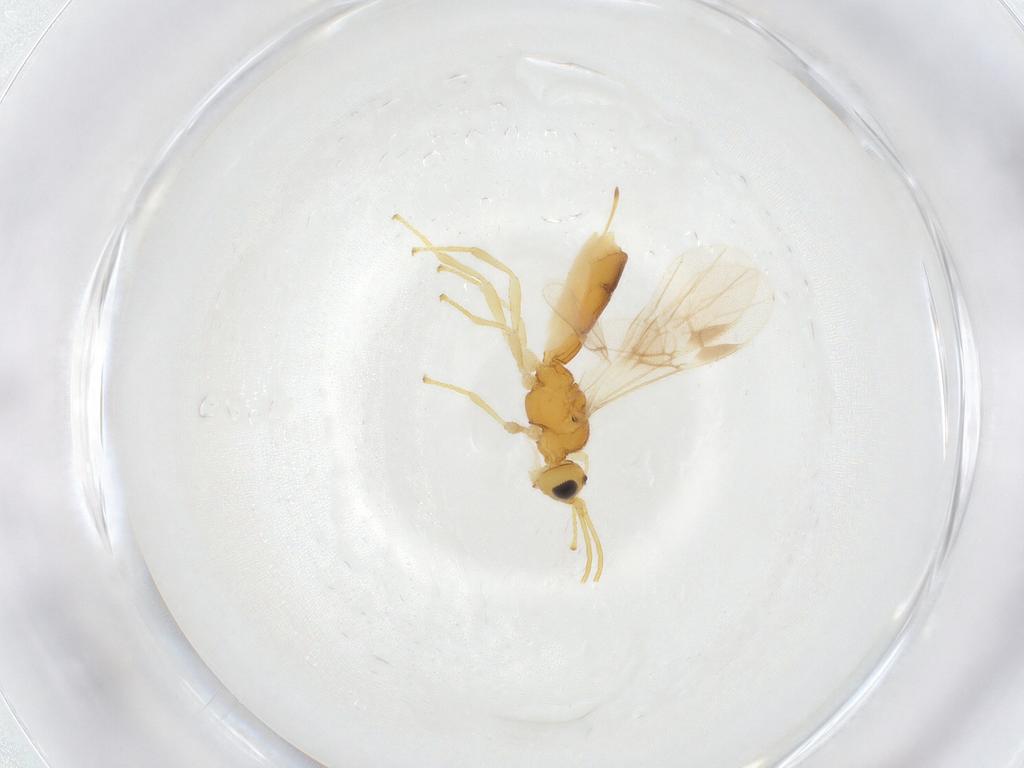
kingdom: Animalia
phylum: Arthropoda
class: Insecta
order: Hymenoptera
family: Braconidae
